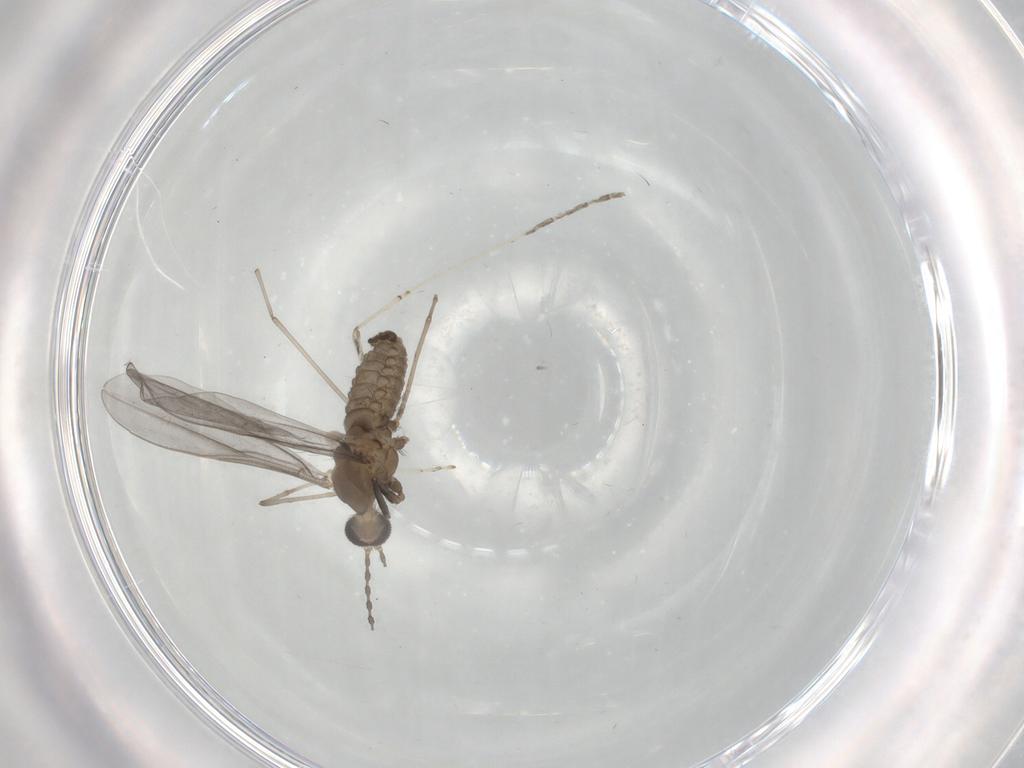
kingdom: Animalia
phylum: Arthropoda
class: Insecta
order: Diptera
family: Cecidomyiidae
